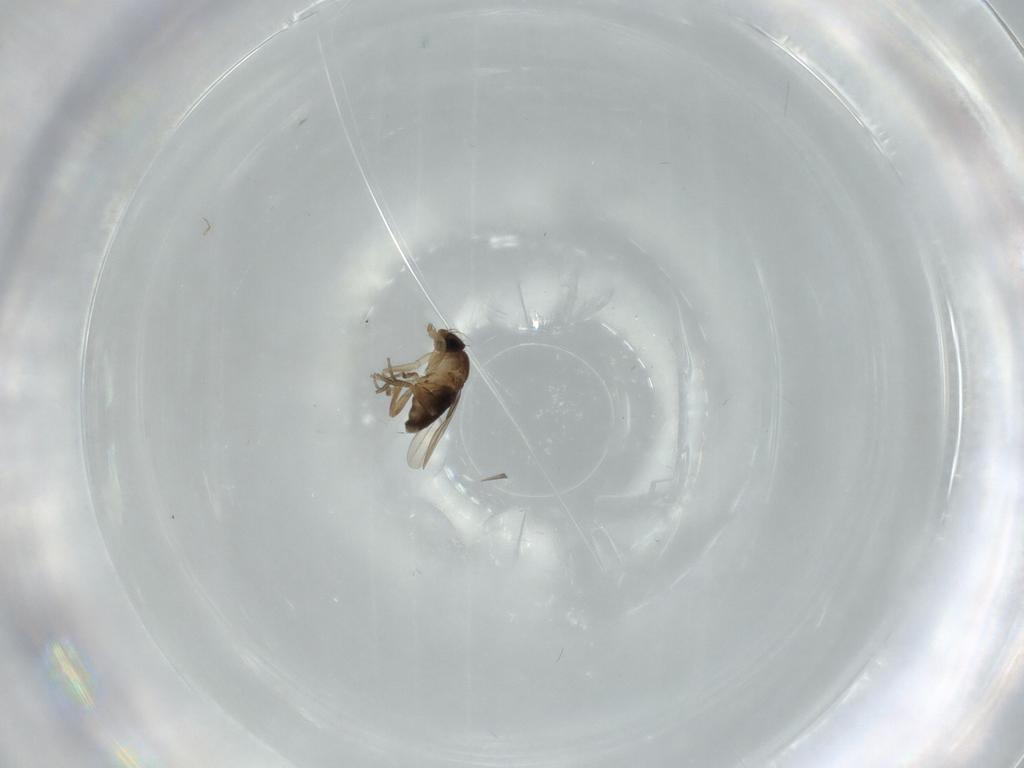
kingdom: Animalia
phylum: Arthropoda
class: Insecta
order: Diptera
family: Phoridae
